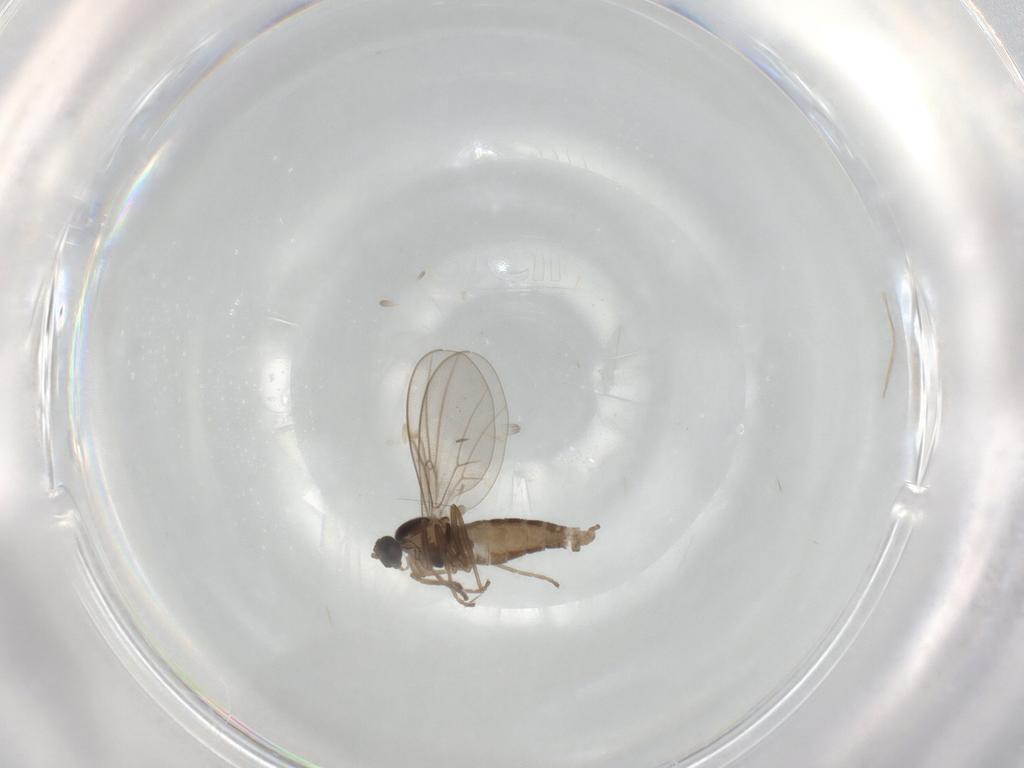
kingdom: Animalia
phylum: Arthropoda
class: Insecta
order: Diptera
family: Cecidomyiidae
